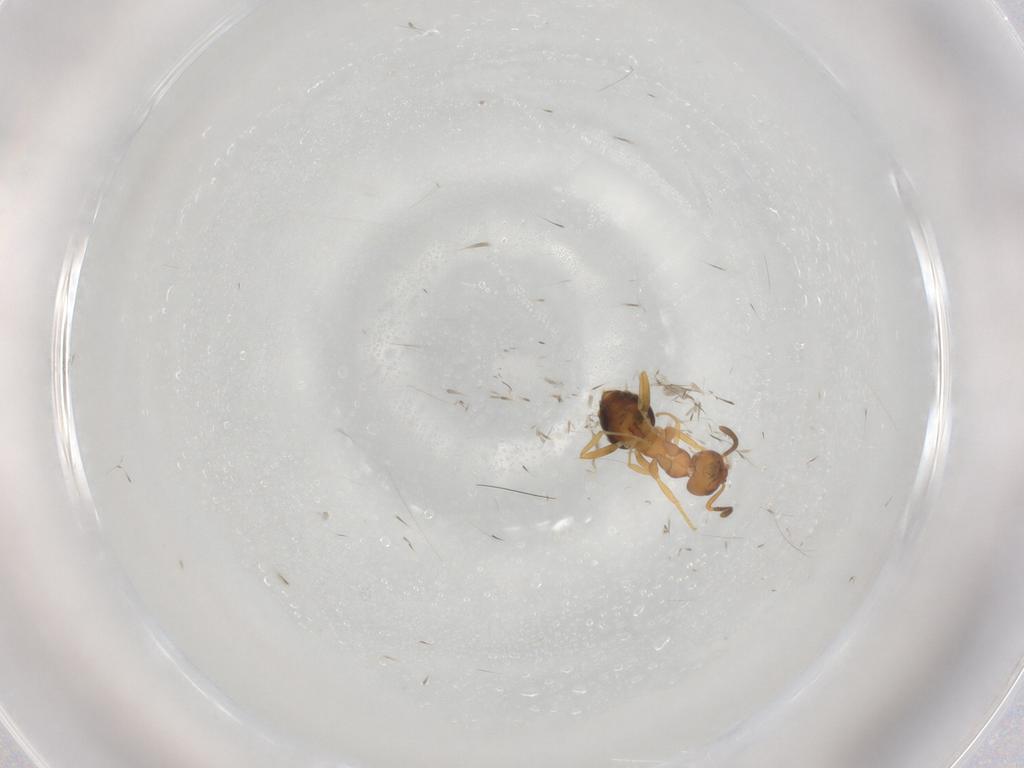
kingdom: Animalia
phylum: Arthropoda
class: Insecta
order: Hymenoptera
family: Formicidae
